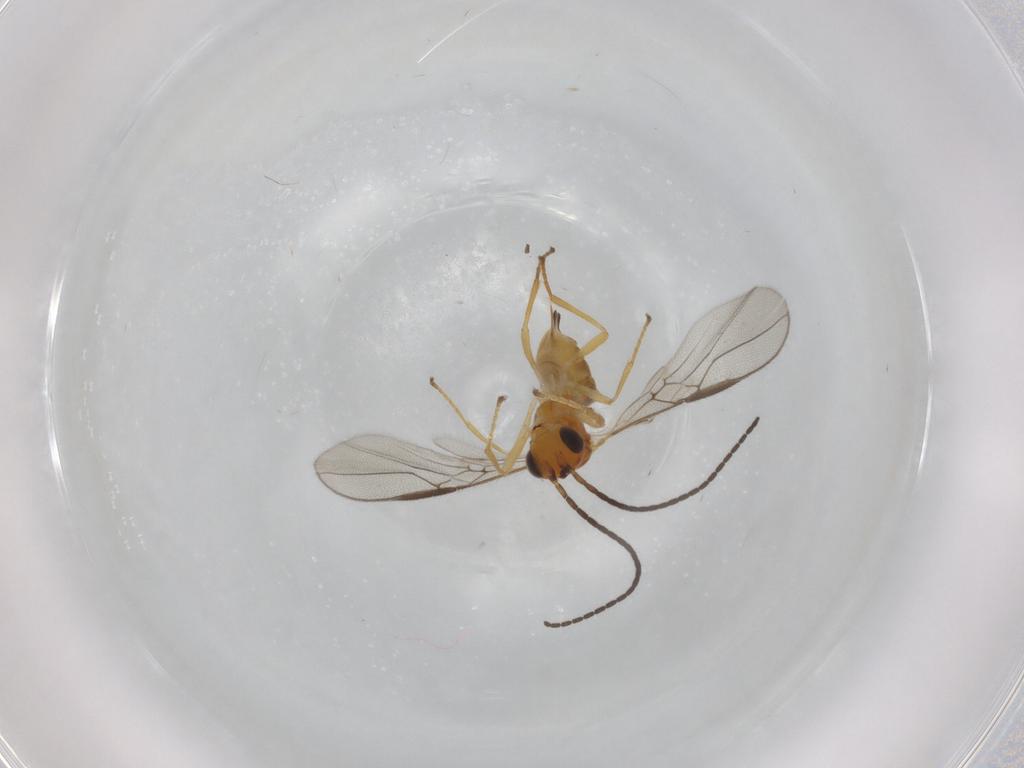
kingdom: Animalia
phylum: Arthropoda
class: Insecta
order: Hymenoptera
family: Braconidae
